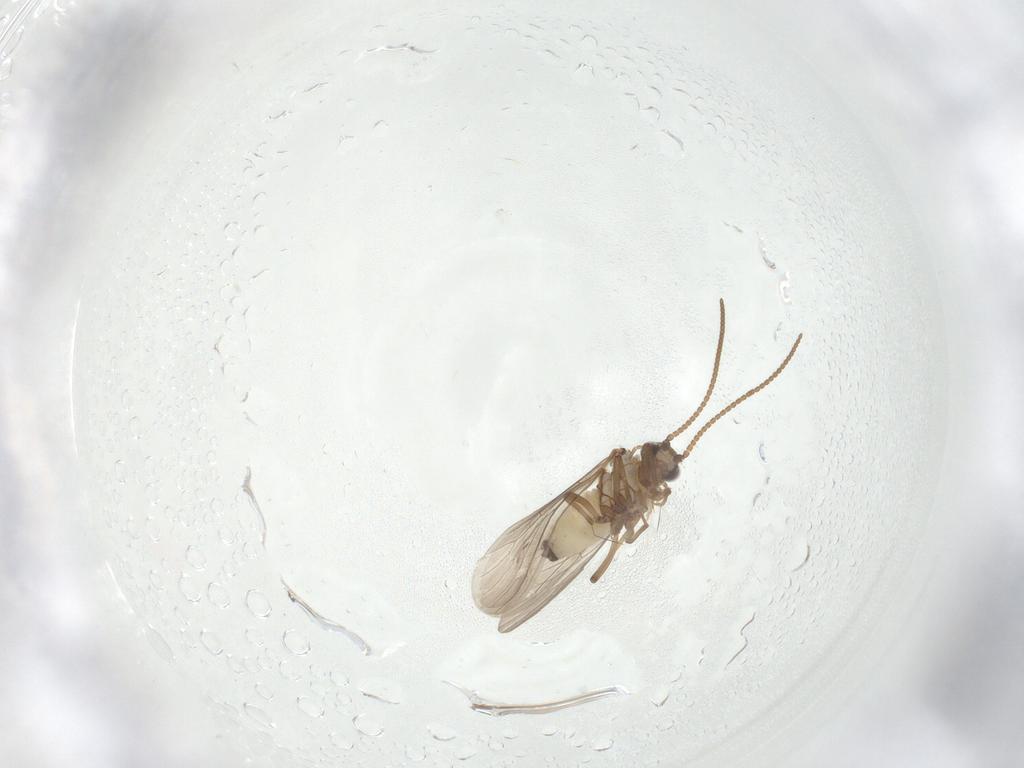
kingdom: Animalia
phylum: Arthropoda
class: Insecta
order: Neuroptera
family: Coniopterygidae
